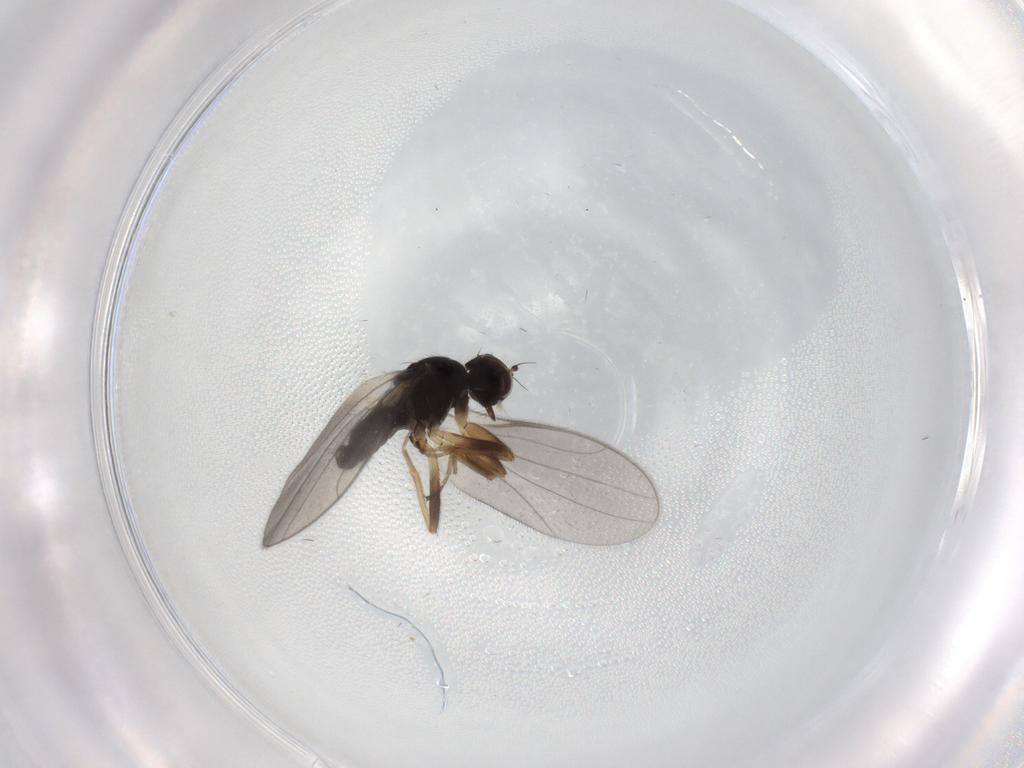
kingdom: Animalia
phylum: Arthropoda
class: Insecta
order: Diptera
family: Hybotidae
